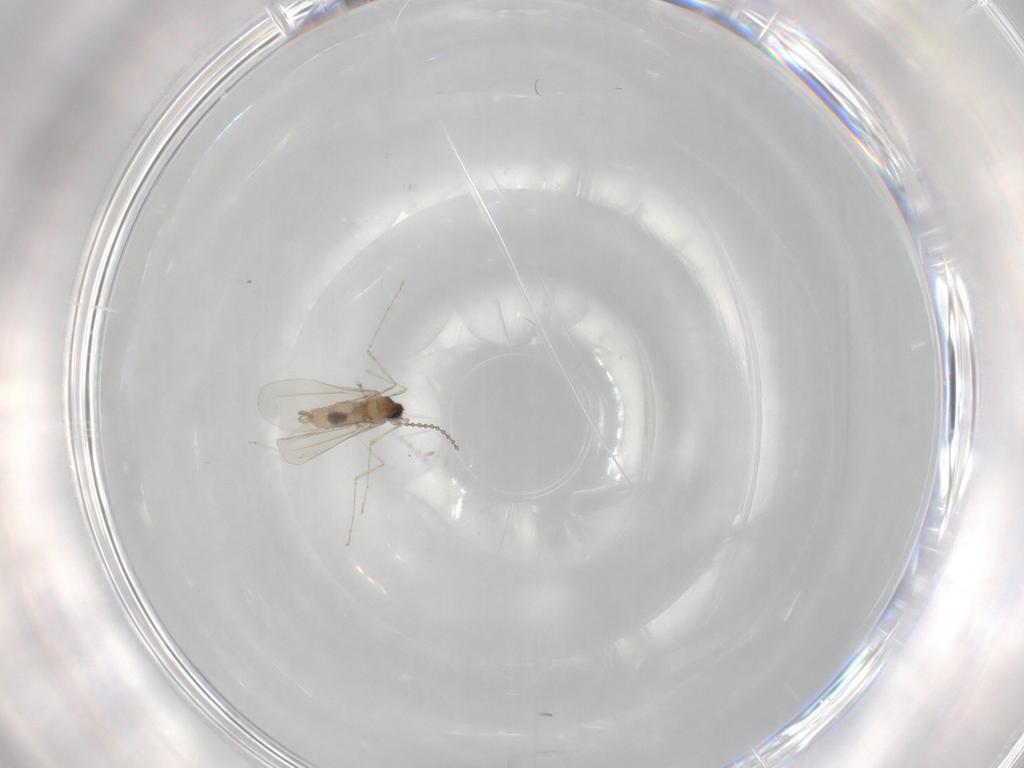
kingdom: Animalia
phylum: Arthropoda
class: Insecta
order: Diptera
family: Cecidomyiidae
